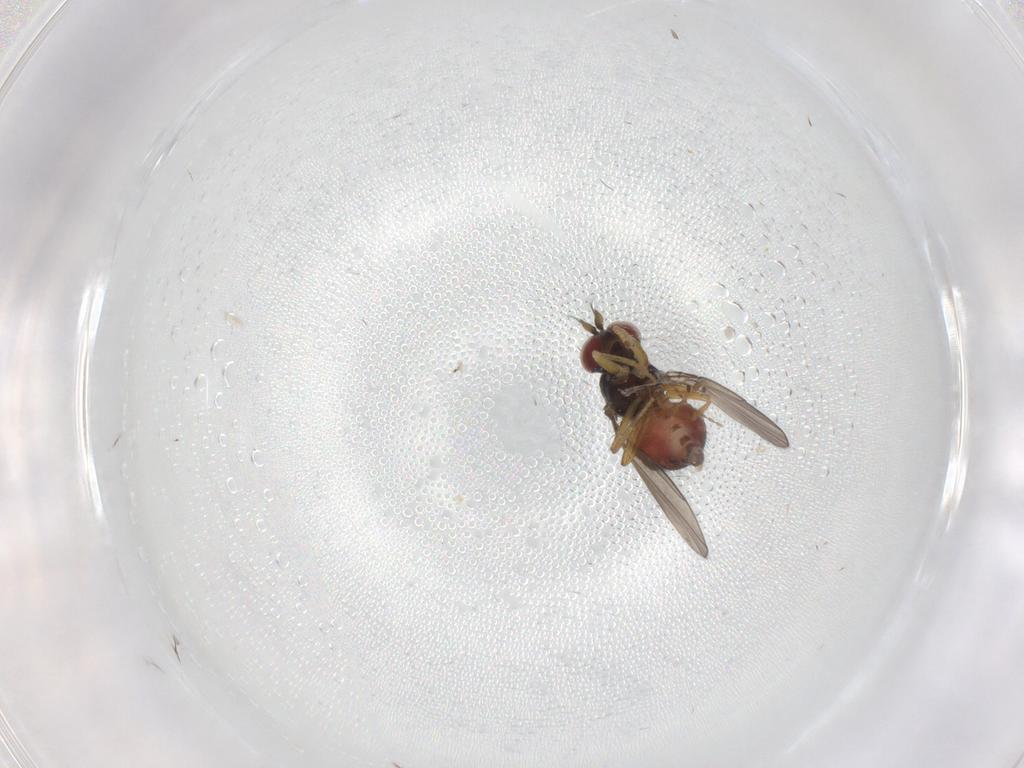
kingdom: Animalia
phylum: Arthropoda
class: Insecta
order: Diptera
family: Ephydridae
